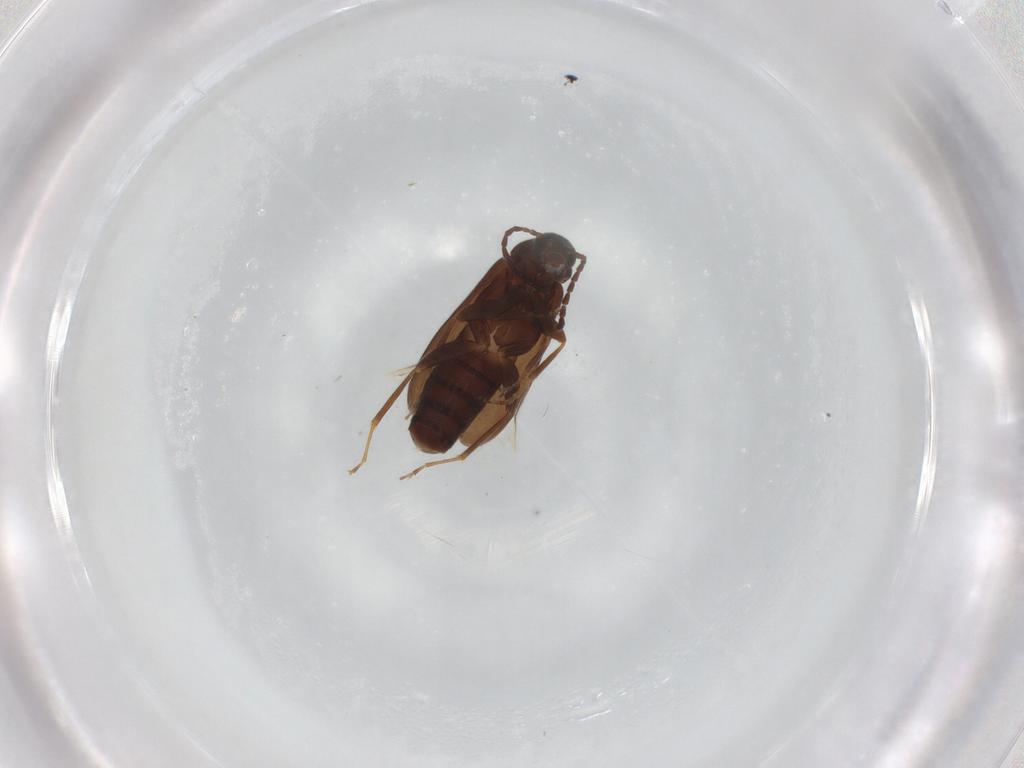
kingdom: Animalia
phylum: Arthropoda
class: Insecta
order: Coleoptera
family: Scraptiidae
